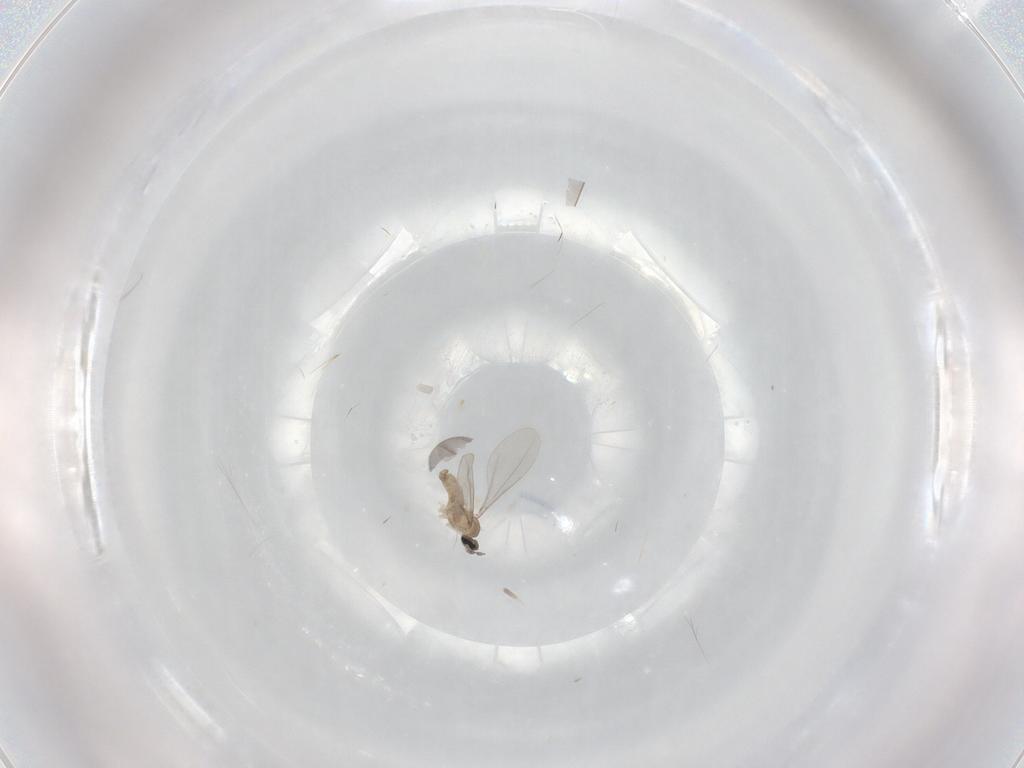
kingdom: Animalia
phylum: Arthropoda
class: Insecta
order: Diptera
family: Cecidomyiidae
